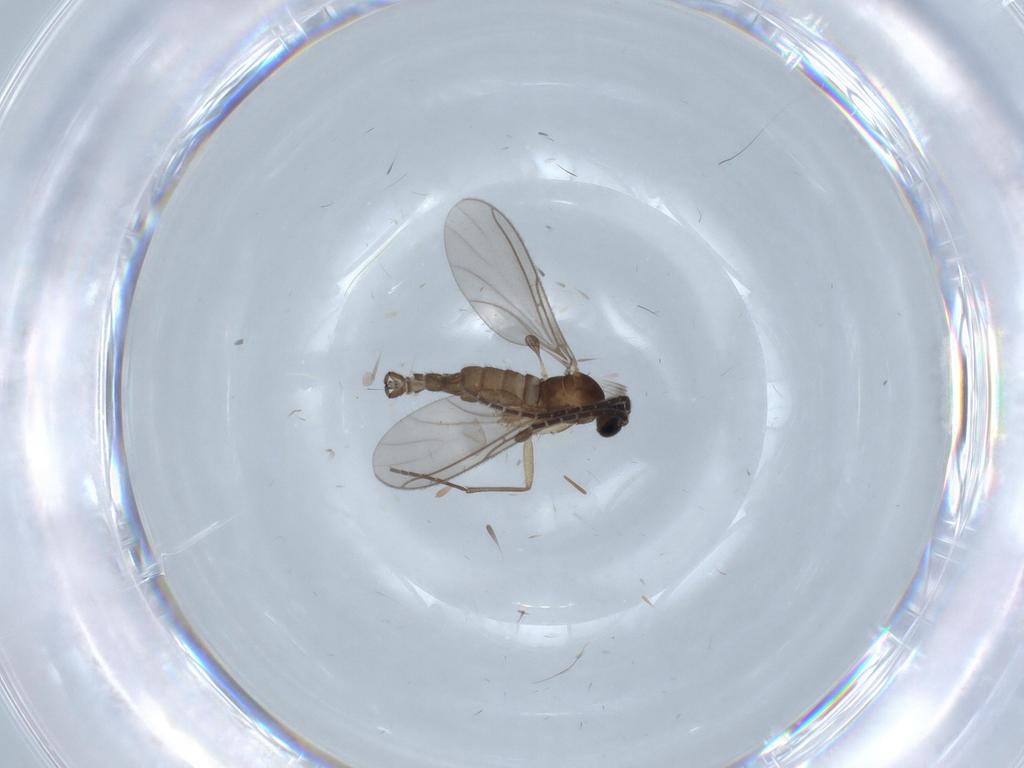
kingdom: Animalia
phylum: Arthropoda
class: Insecta
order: Diptera
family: Sciaridae
